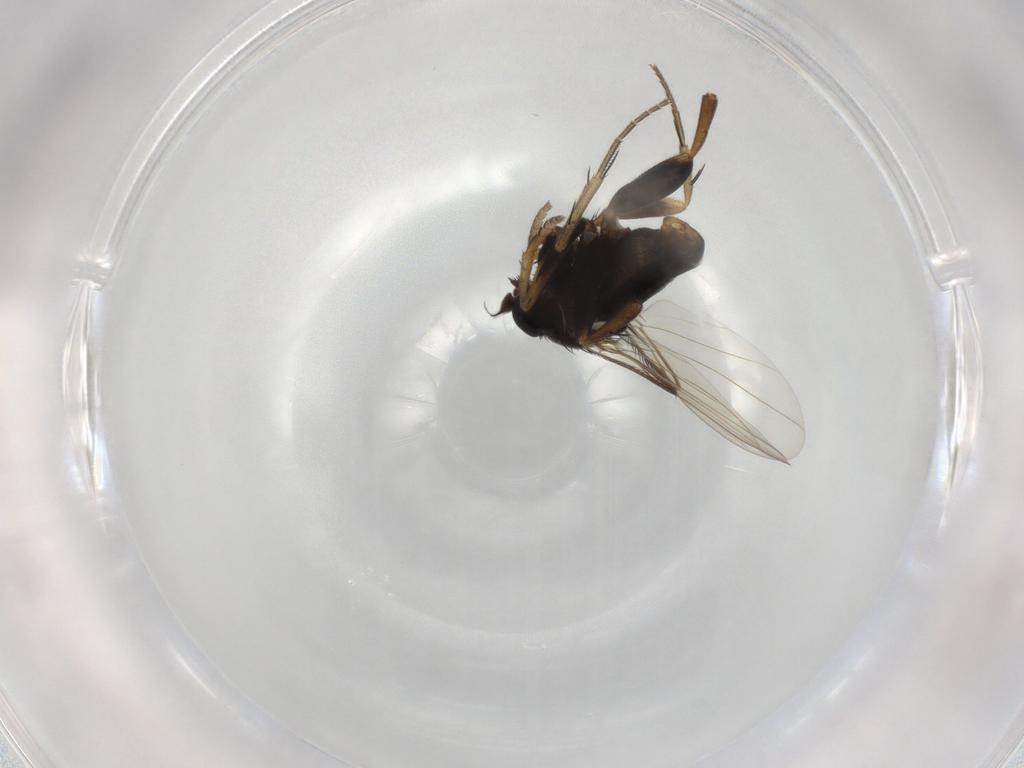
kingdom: Animalia
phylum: Arthropoda
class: Insecta
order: Diptera
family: Phoridae
